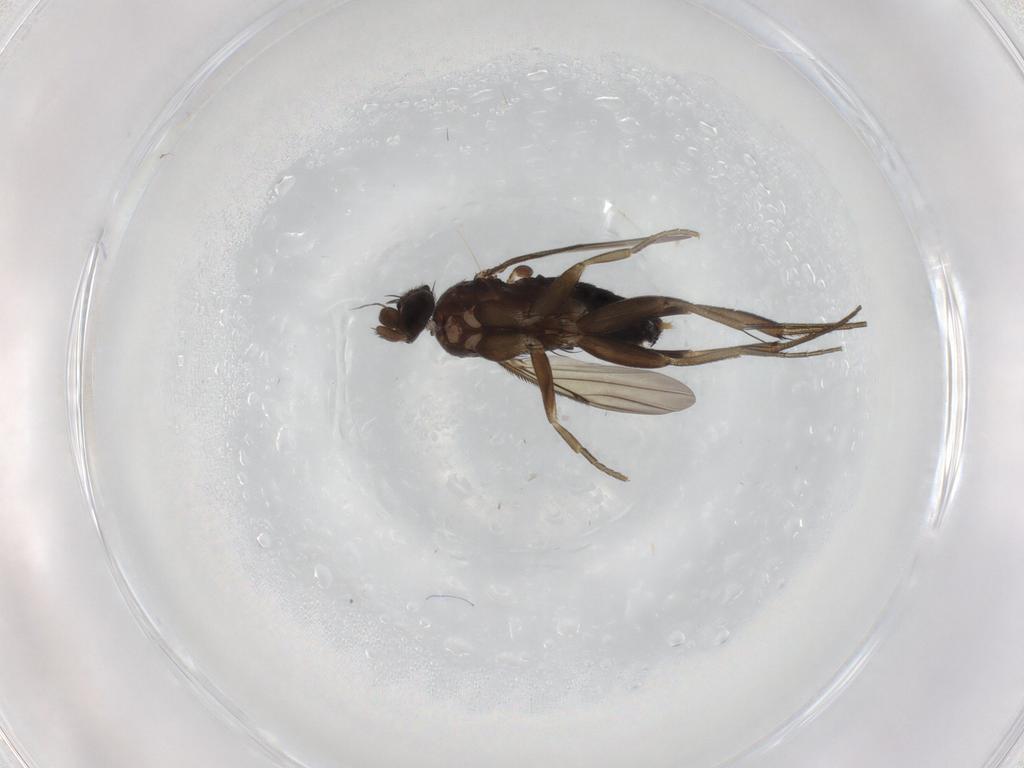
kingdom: Animalia
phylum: Arthropoda
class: Insecta
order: Diptera
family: Phoridae
